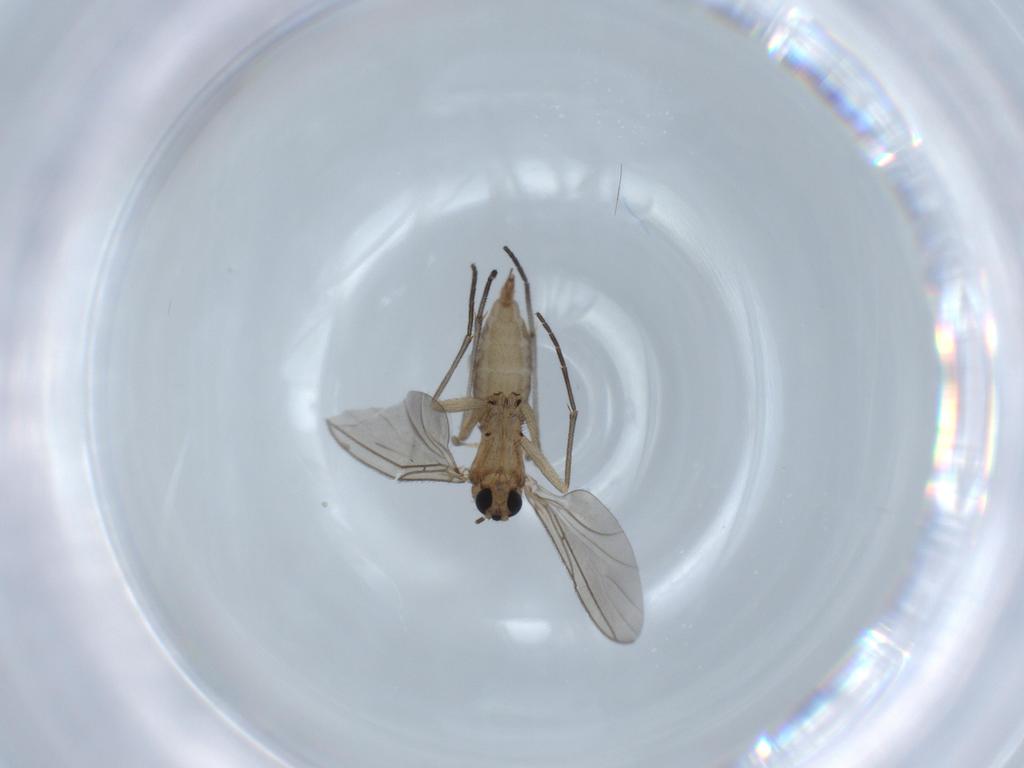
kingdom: Animalia
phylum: Arthropoda
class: Insecta
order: Diptera
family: Sciaridae
